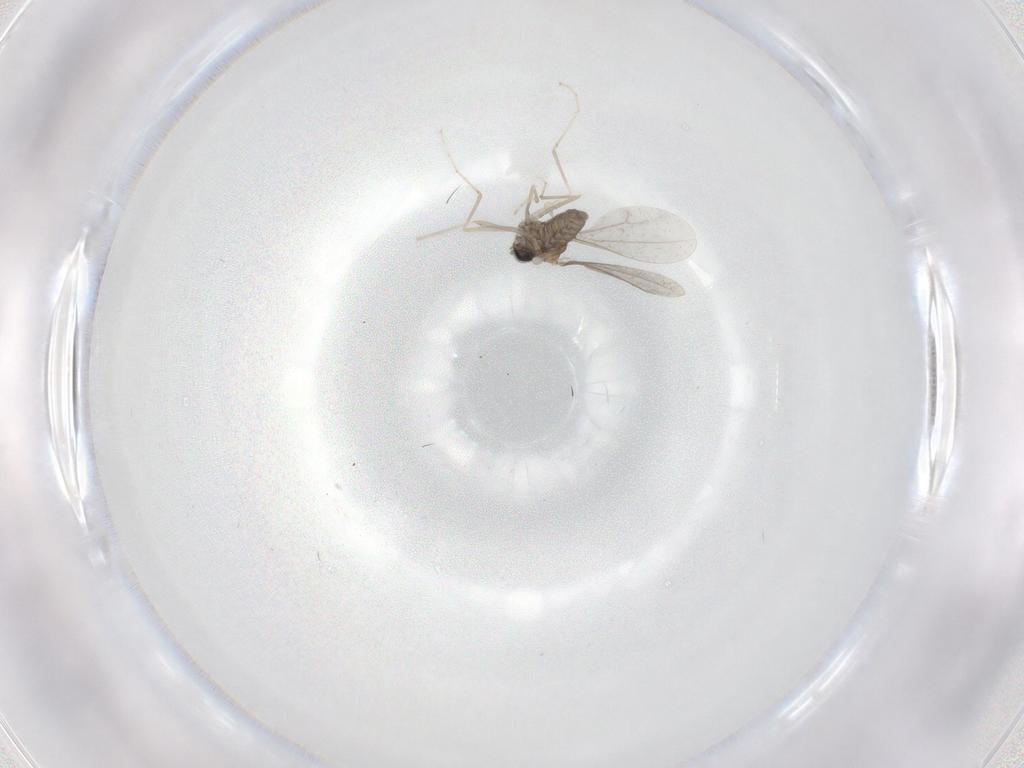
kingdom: Animalia
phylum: Arthropoda
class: Insecta
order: Diptera
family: Cecidomyiidae
